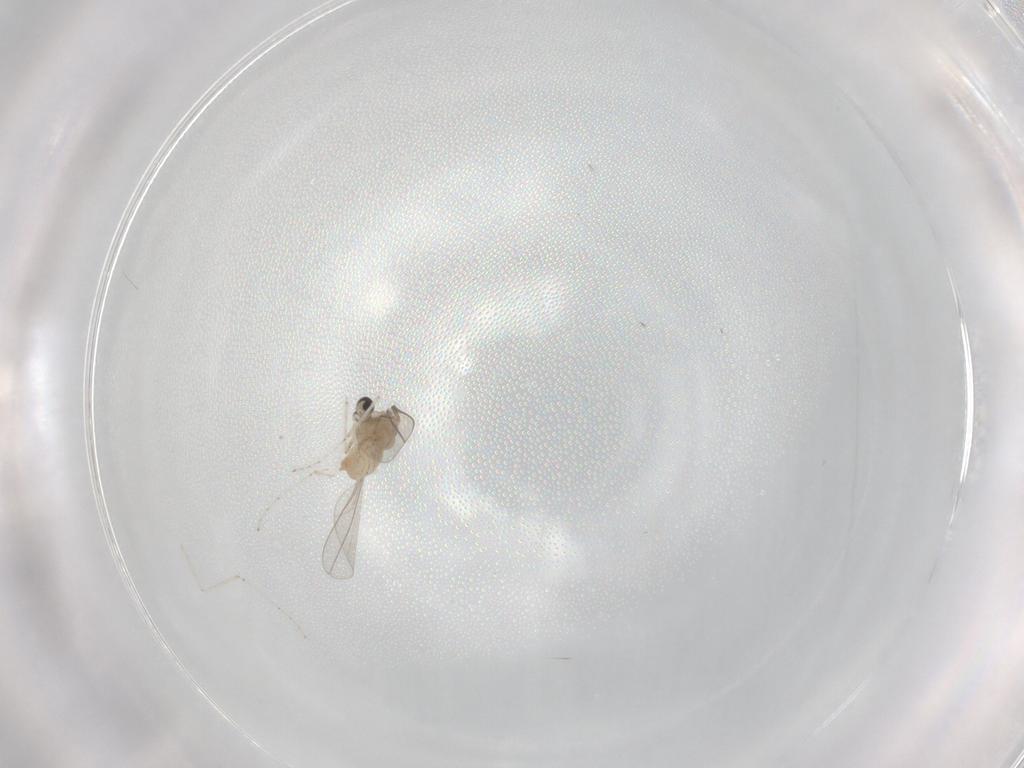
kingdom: Animalia
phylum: Arthropoda
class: Insecta
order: Diptera
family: Cecidomyiidae
